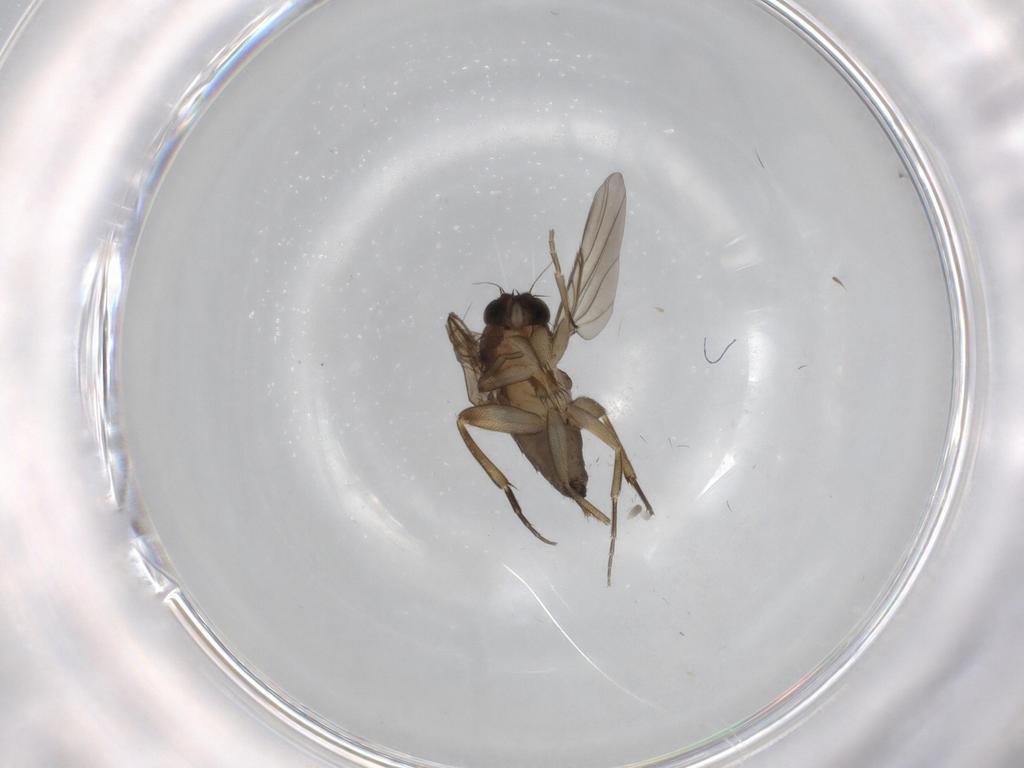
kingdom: Animalia
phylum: Arthropoda
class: Insecta
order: Diptera
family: Phoridae
